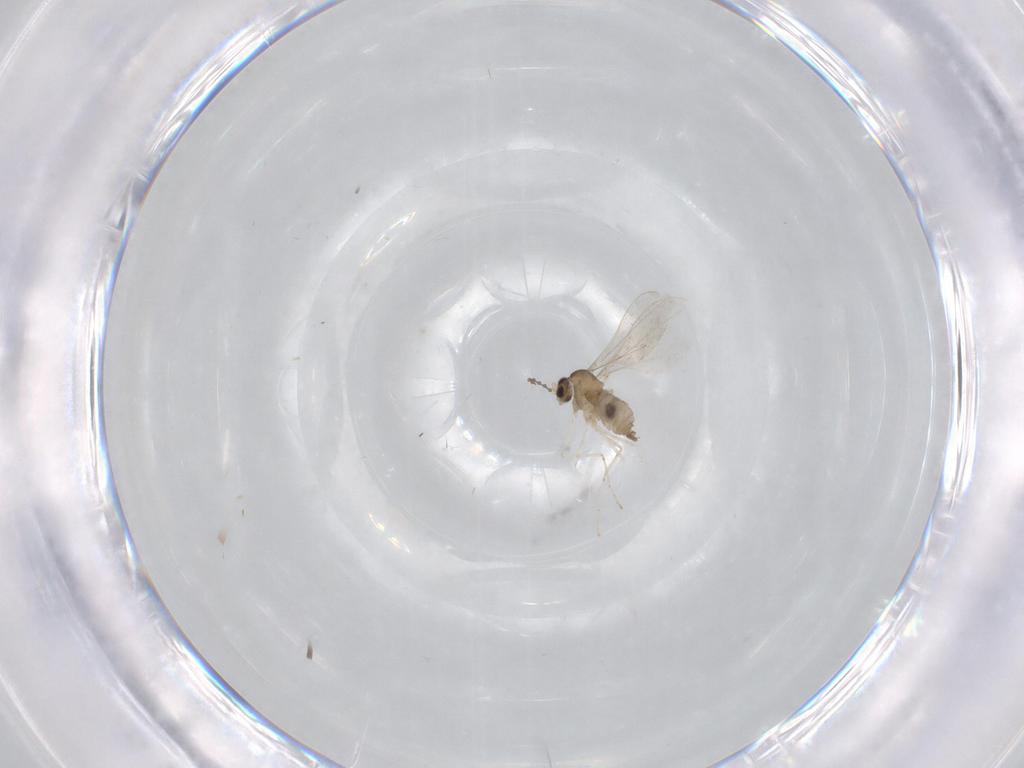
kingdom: Animalia
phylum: Arthropoda
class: Insecta
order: Diptera
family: Cecidomyiidae
